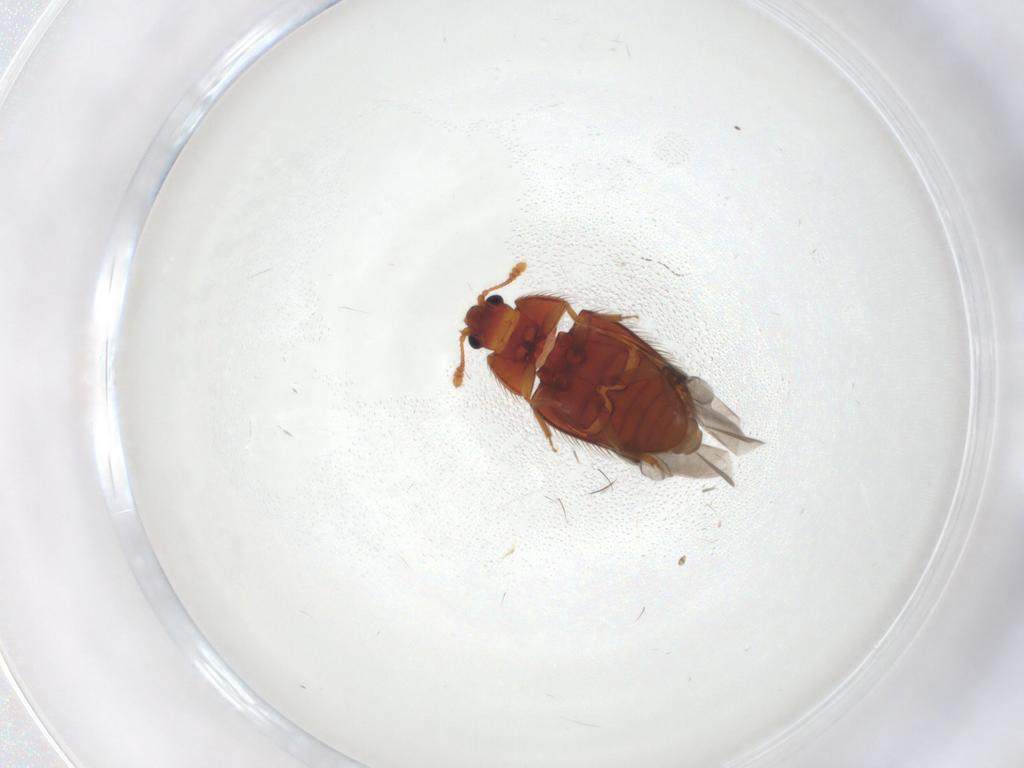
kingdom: Animalia
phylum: Arthropoda
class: Insecta
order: Coleoptera
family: Biphyllidae
